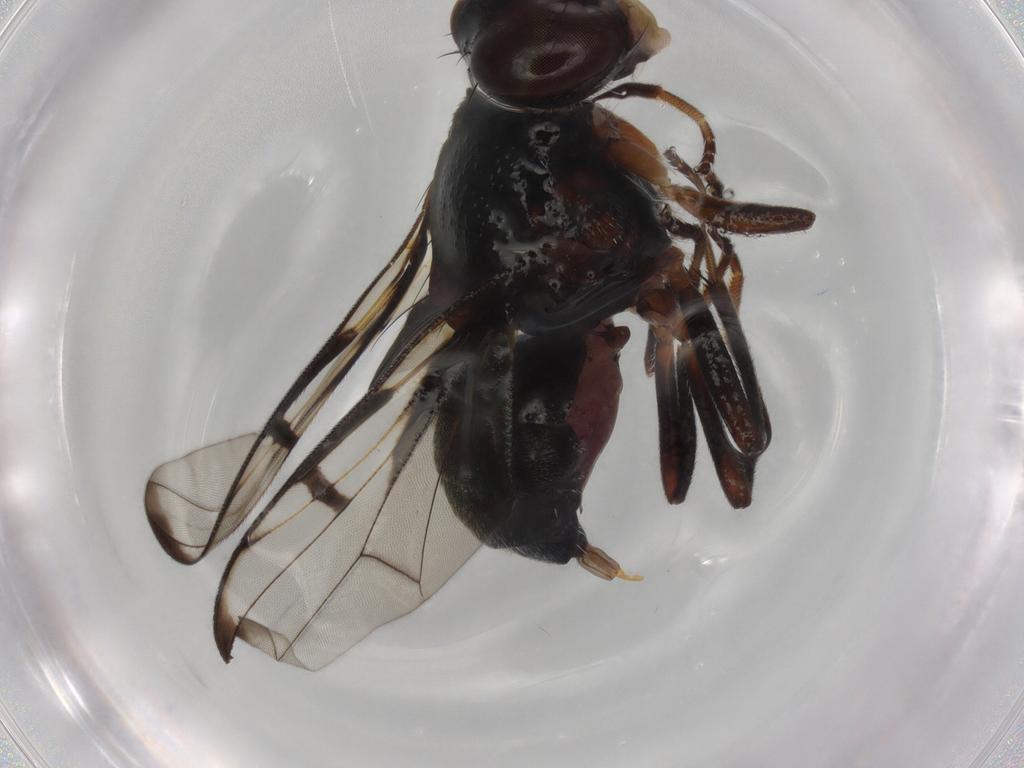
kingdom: Animalia
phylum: Arthropoda
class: Insecta
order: Diptera
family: Platystomatidae
